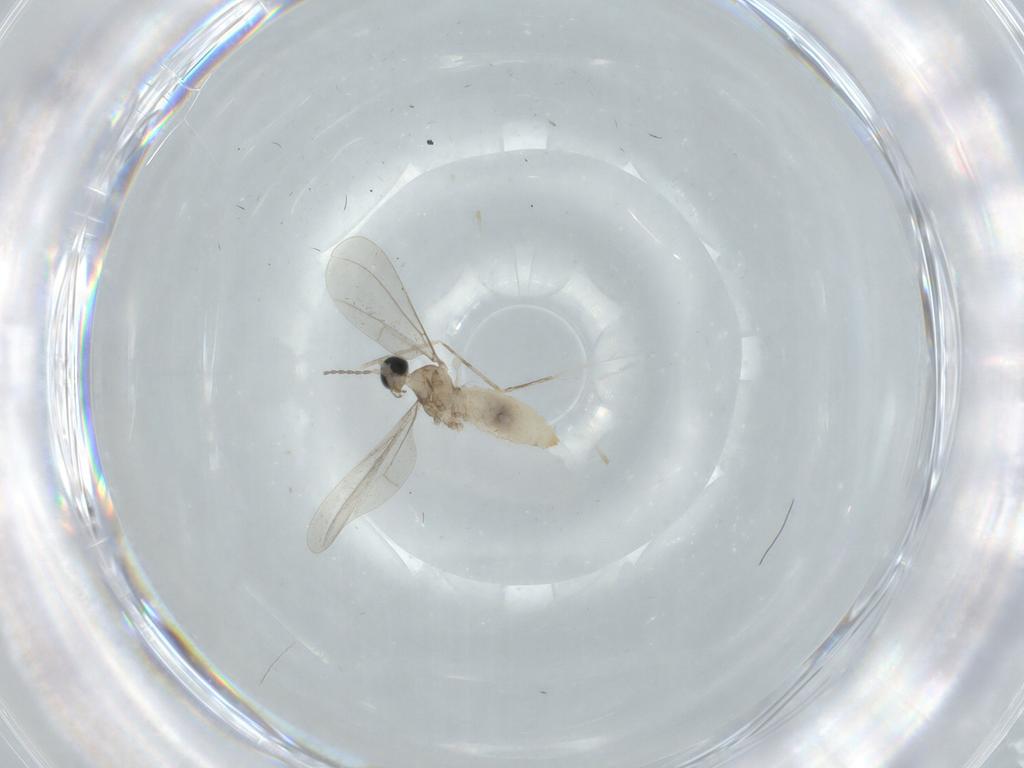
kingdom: Animalia
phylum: Arthropoda
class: Insecta
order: Diptera
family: Cecidomyiidae
